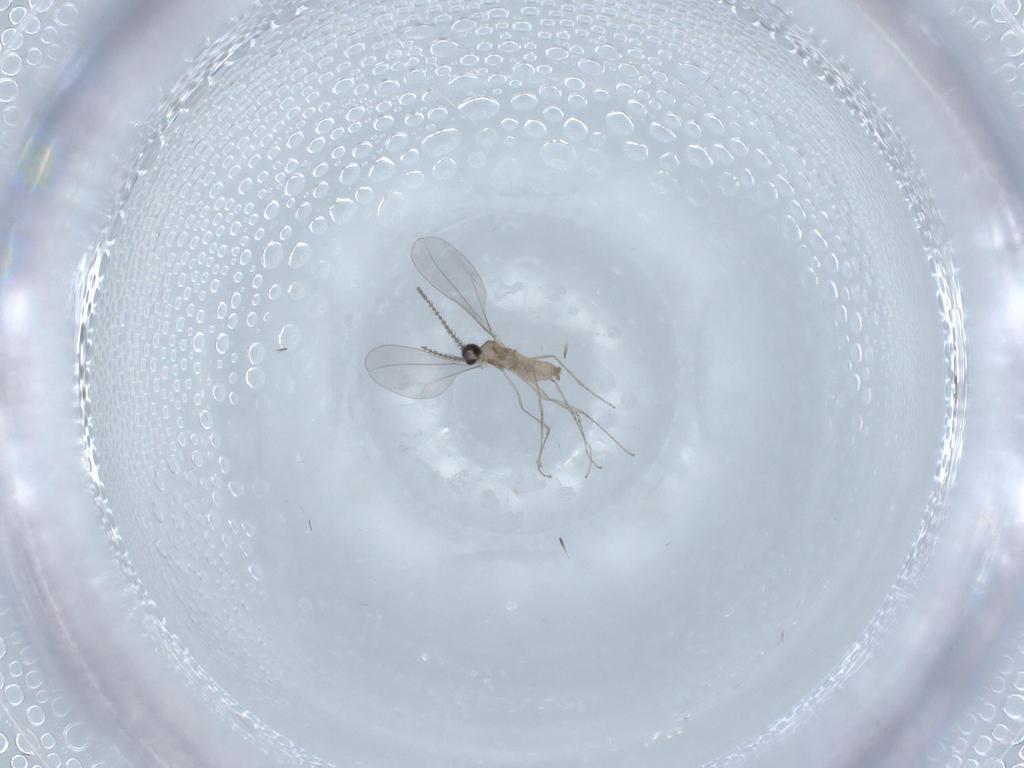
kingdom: Animalia
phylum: Arthropoda
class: Insecta
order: Diptera
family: Cecidomyiidae
